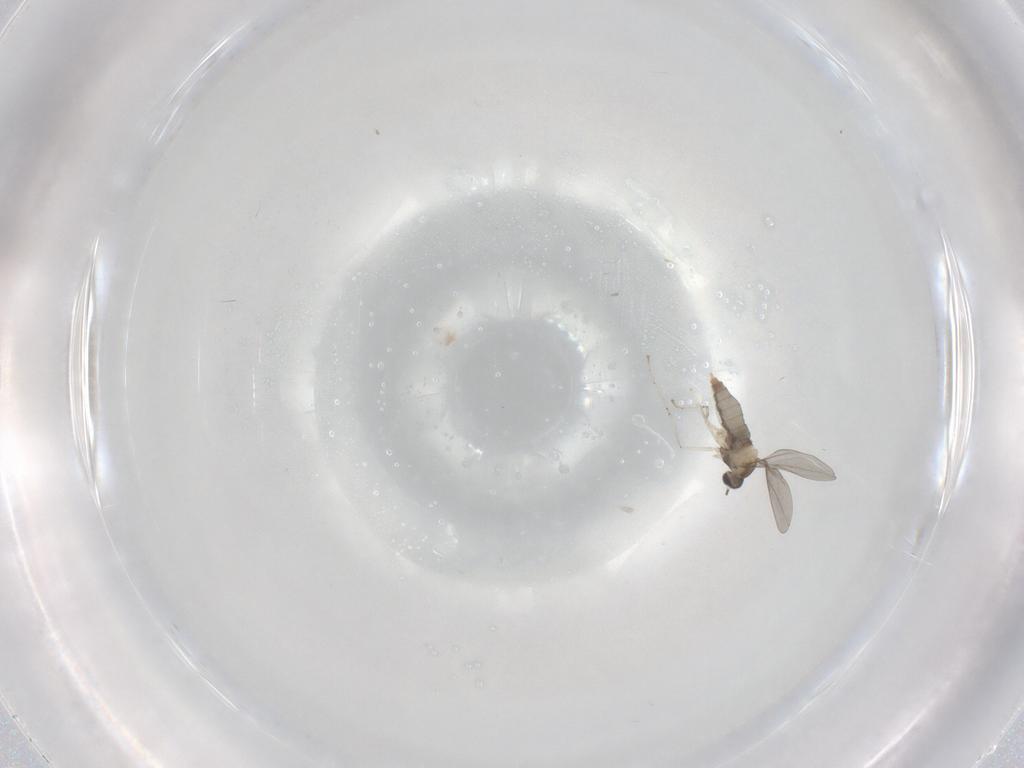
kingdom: Animalia
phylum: Arthropoda
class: Insecta
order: Diptera
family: Cecidomyiidae
